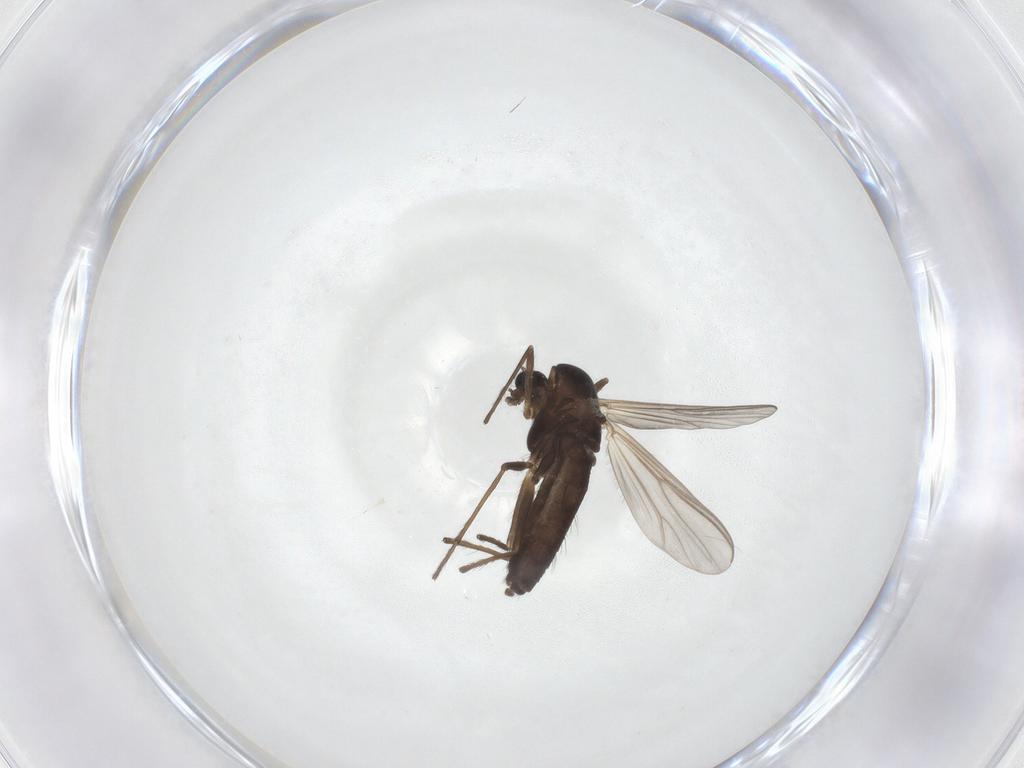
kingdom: Animalia
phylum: Arthropoda
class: Insecta
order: Diptera
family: Chironomidae
